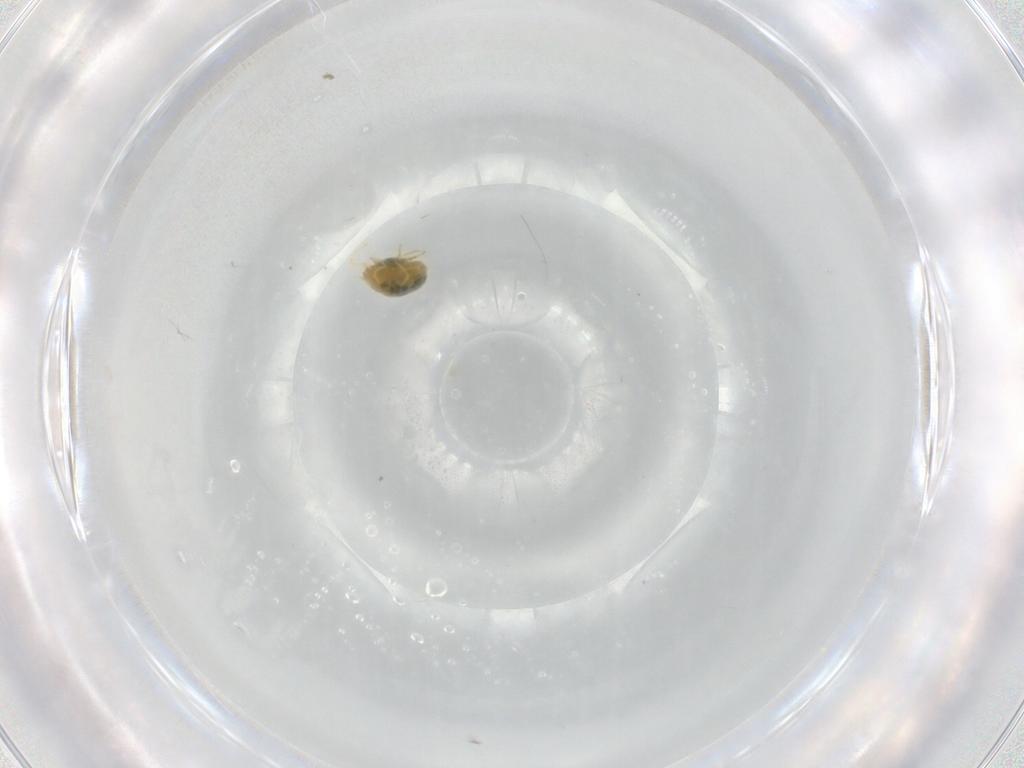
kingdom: Animalia
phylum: Arthropoda
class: Arachnida
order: Trombidiformes
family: Tetranychidae
